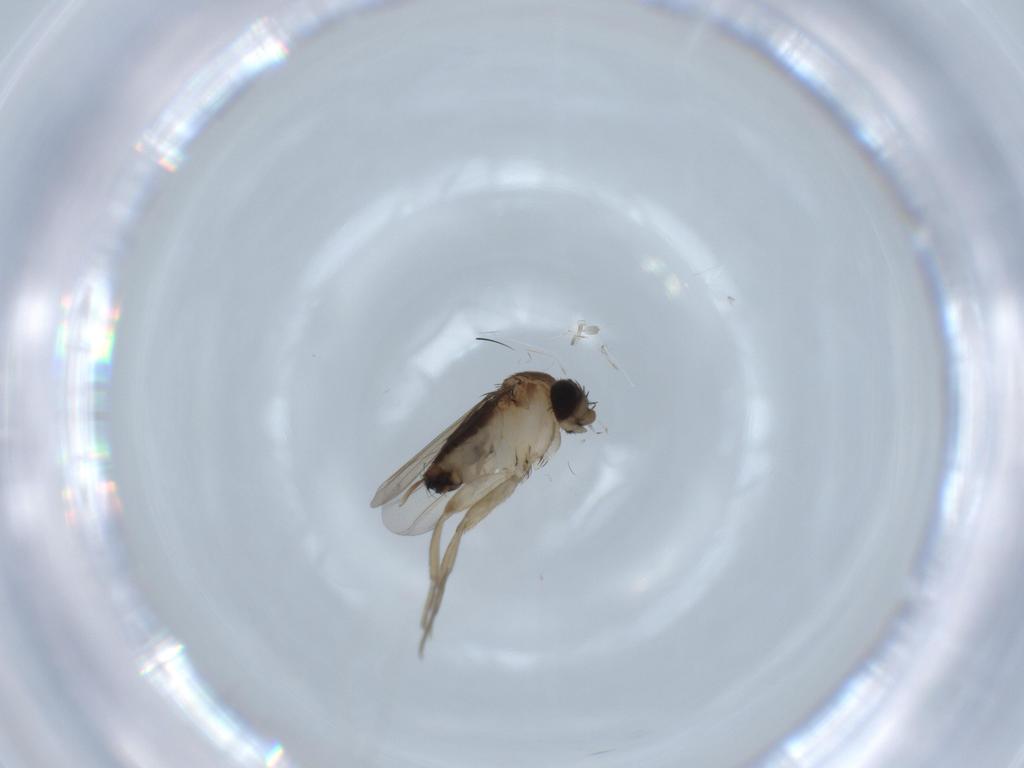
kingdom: Animalia
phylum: Arthropoda
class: Insecta
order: Diptera
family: Phoridae
